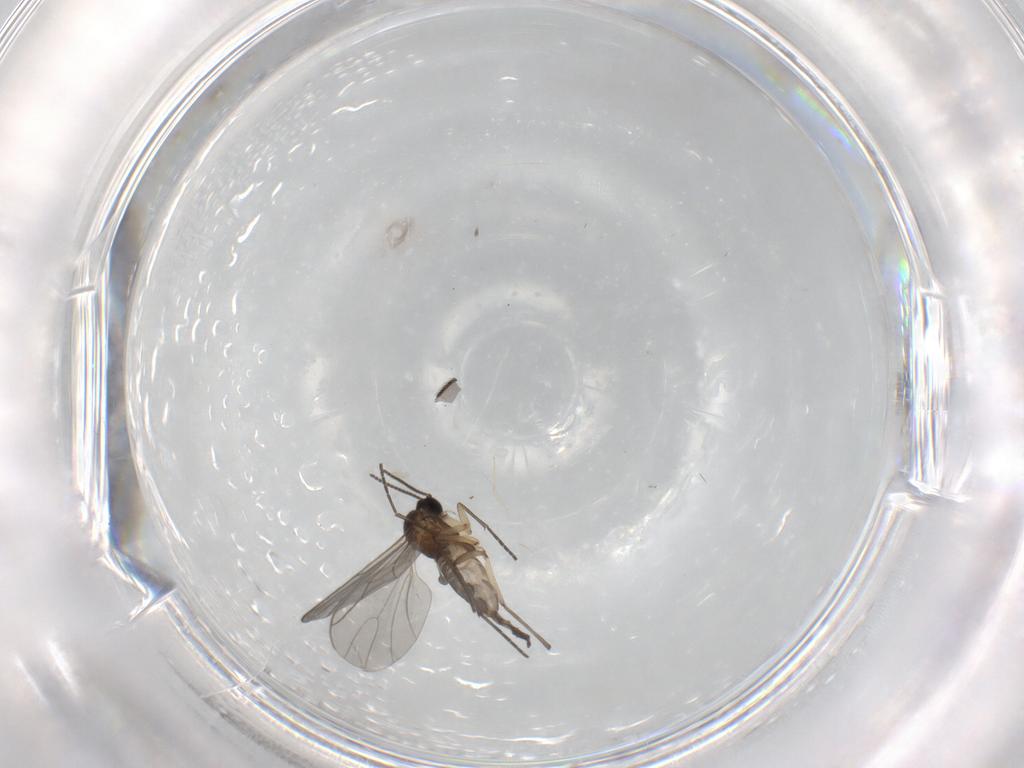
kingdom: Animalia
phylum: Arthropoda
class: Insecta
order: Diptera
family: Sciaridae
